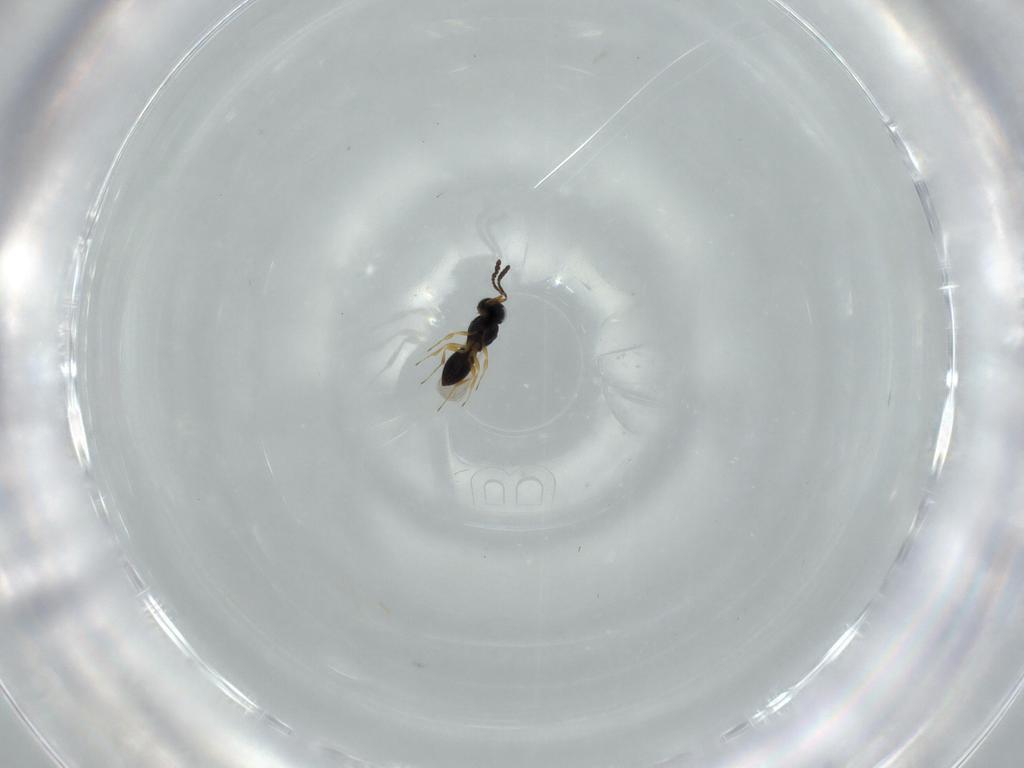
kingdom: Animalia
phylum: Arthropoda
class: Insecta
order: Hymenoptera
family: Scelionidae
